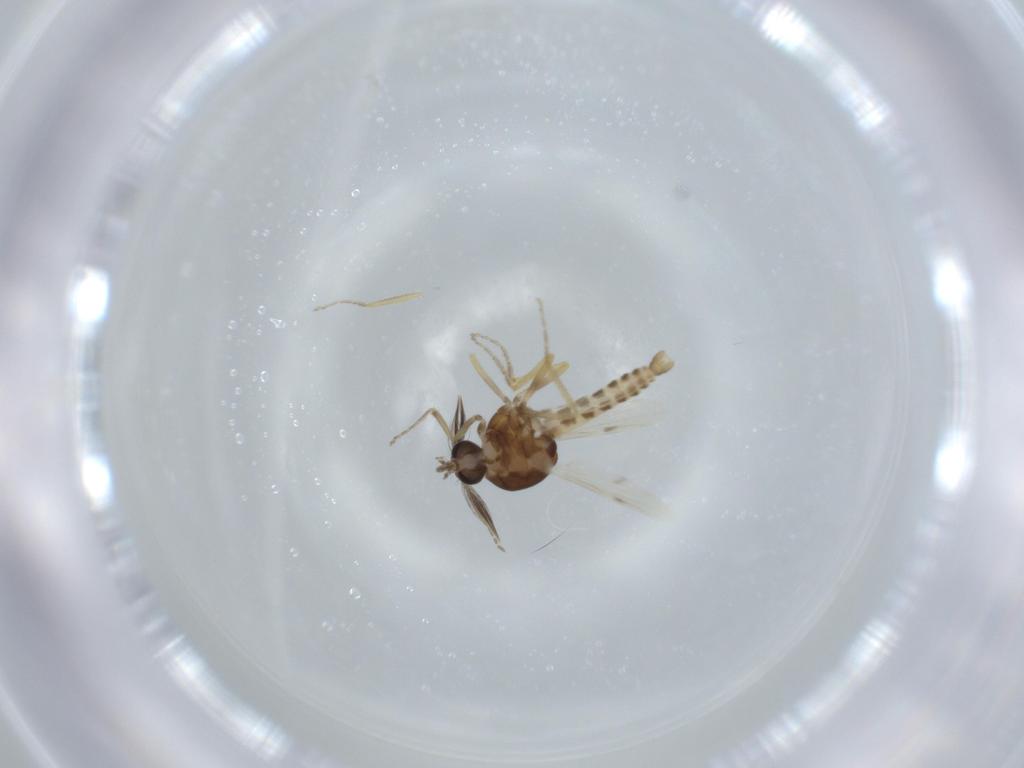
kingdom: Animalia
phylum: Arthropoda
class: Insecta
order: Diptera
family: Ceratopogonidae
